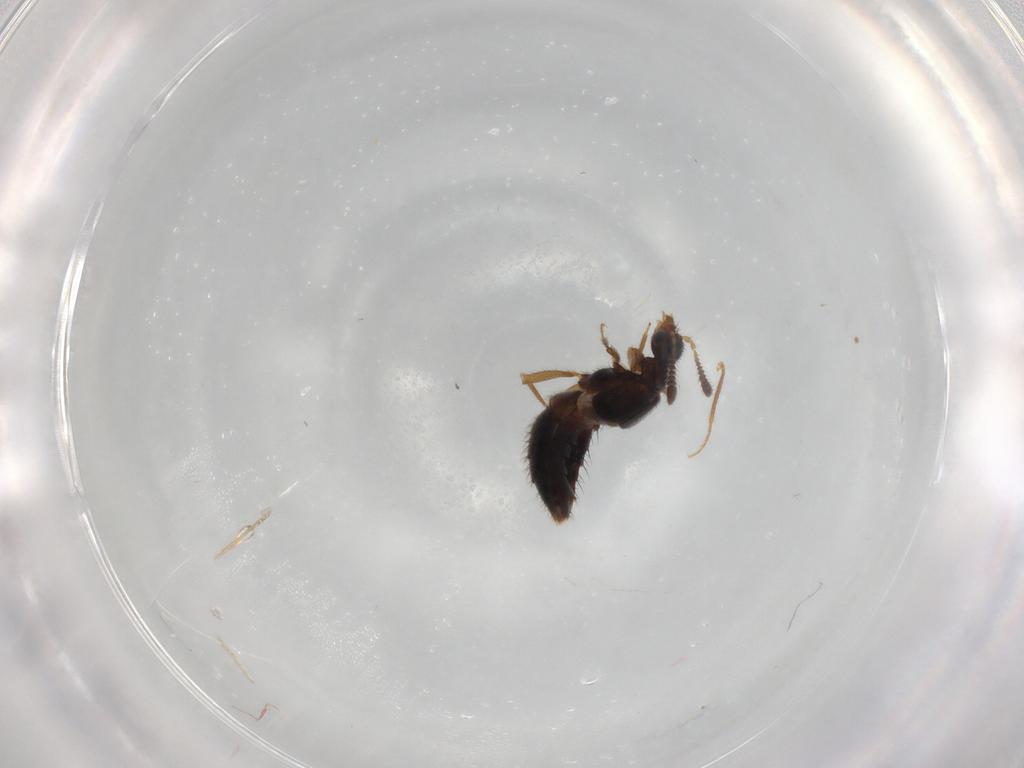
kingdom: Animalia
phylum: Arthropoda
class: Insecta
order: Coleoptera
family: Staphylinidae
